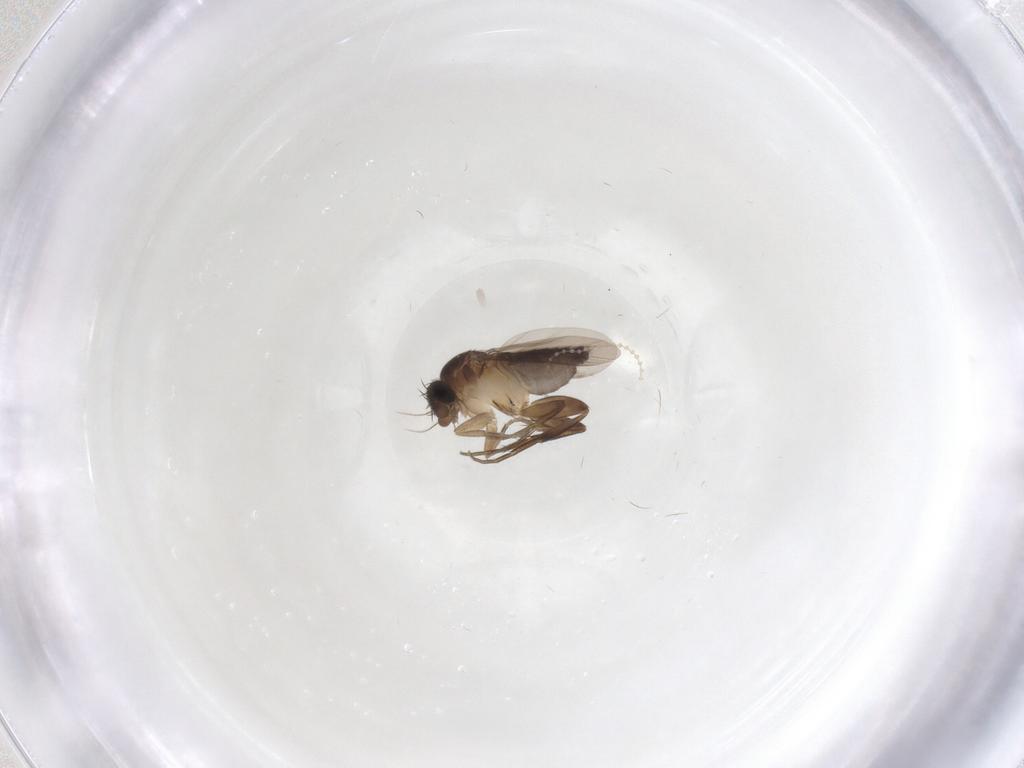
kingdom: Animalia
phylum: Arthropoda
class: Insecta
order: Diptera
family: Phoridae
